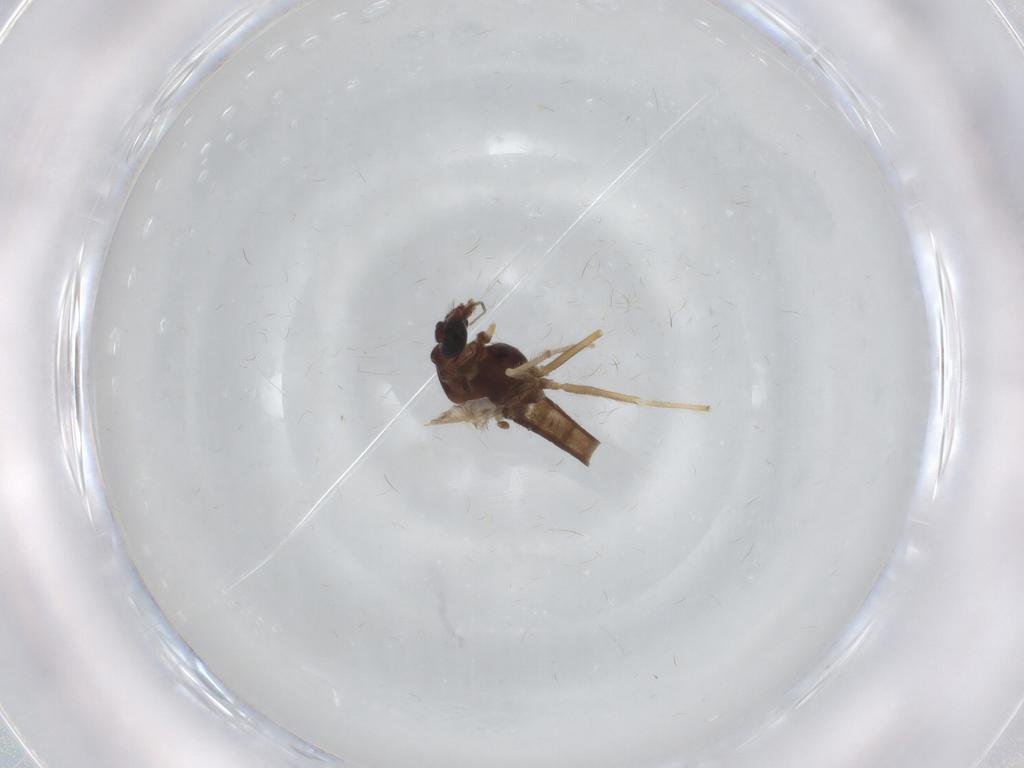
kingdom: Animalia
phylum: Arthropoda
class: Insecta
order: Diptera
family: Chironomidae
